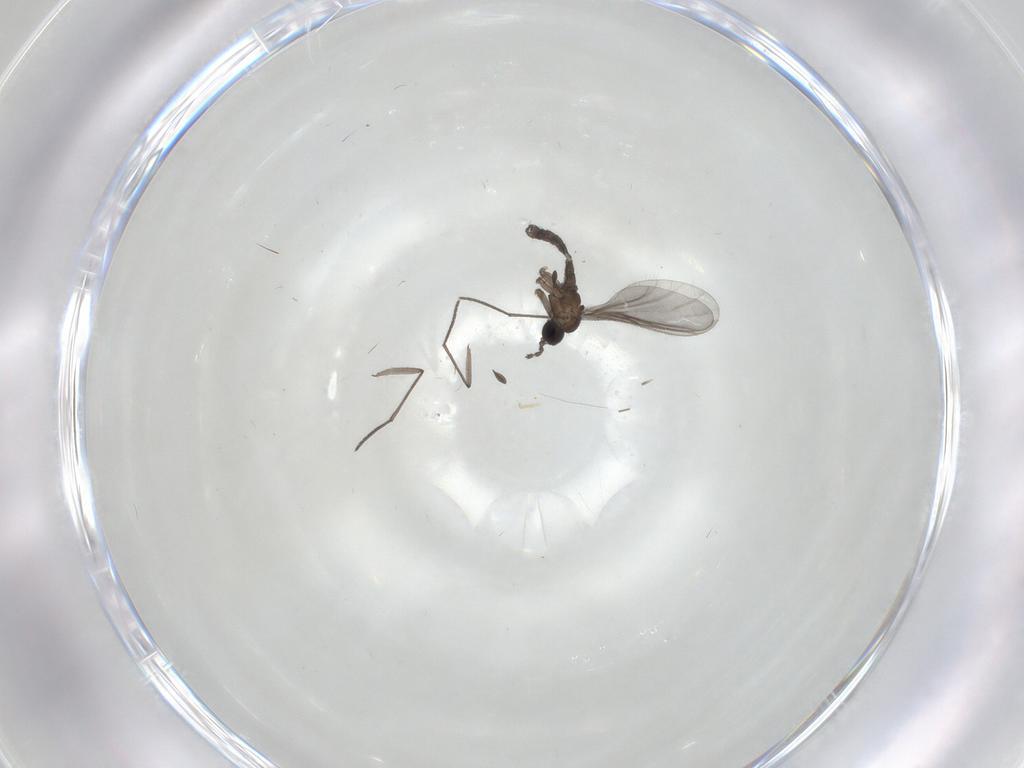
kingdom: Animalia
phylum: Arthropoda
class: Insecta
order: Diptera
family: Sciaridae
